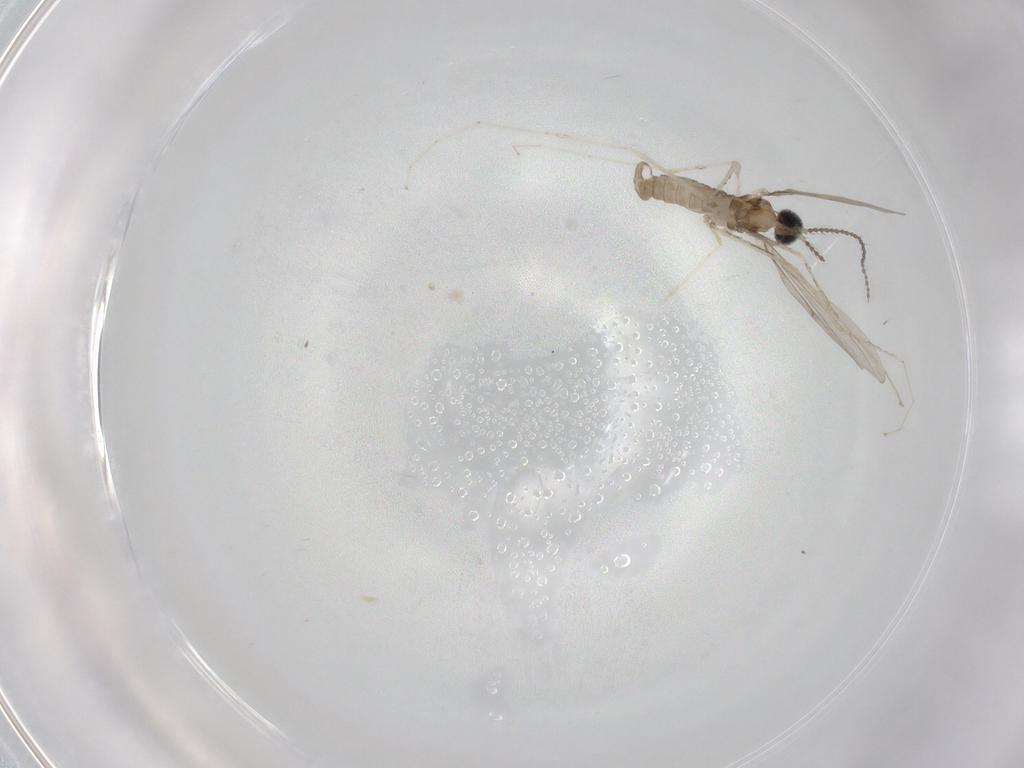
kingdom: Animalia
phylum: Arthropoda
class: Insecta
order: Diptera
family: Cecidomyiidae
